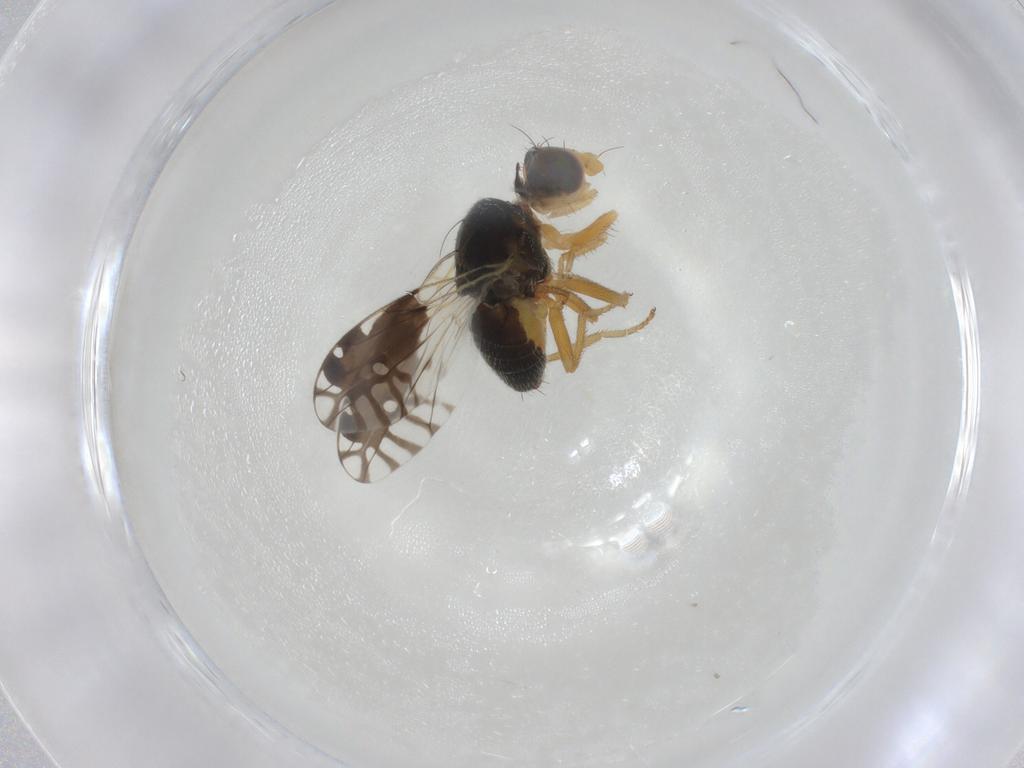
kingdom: Animalia
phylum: Arthropoda
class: Insecta
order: Diptera
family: Tephritidae
